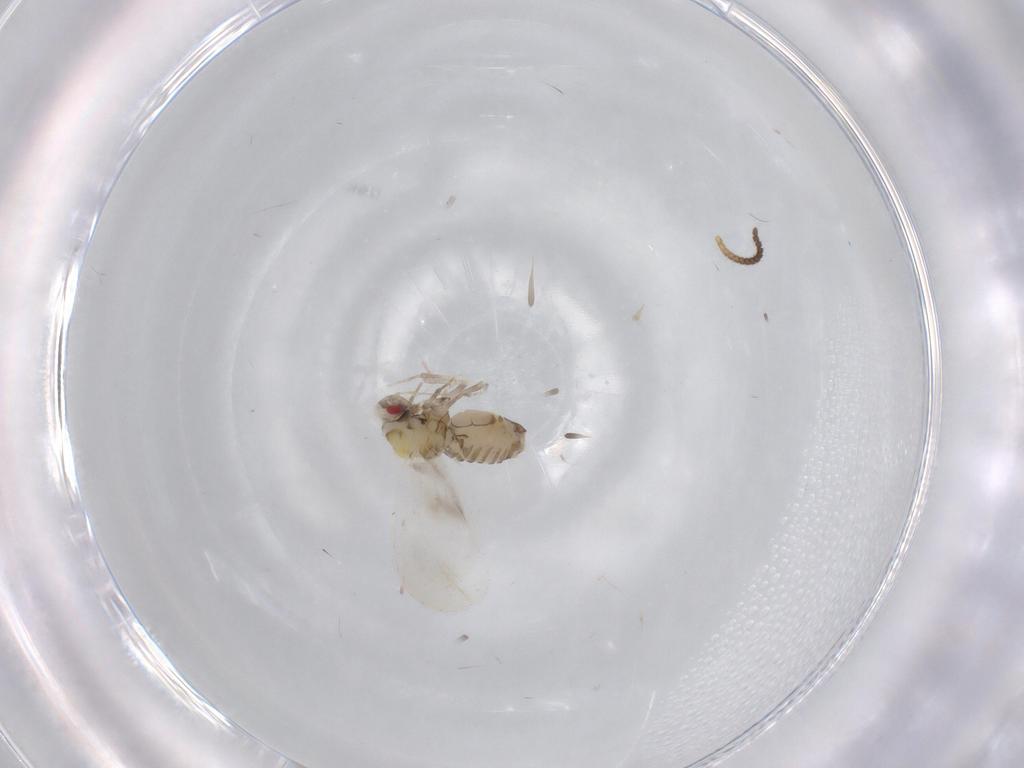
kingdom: Animalia
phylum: Arthropoda
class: Insecta
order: Hemiptera
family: Aleyrodidae
